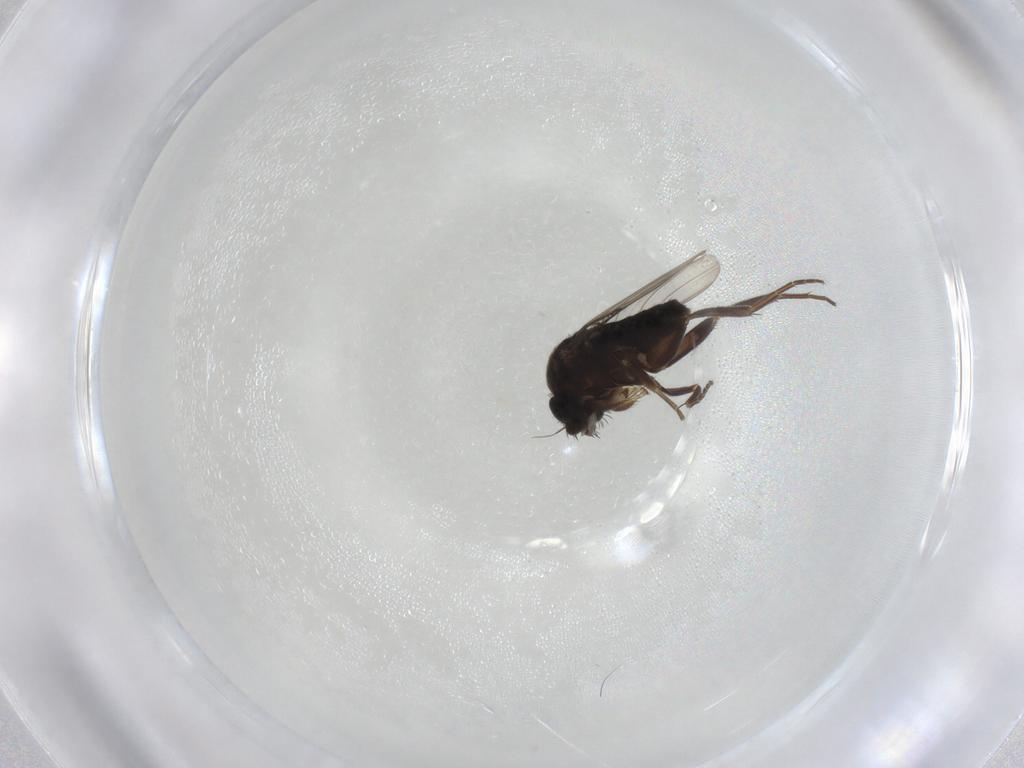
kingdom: Animalia
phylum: Arthropoda
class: Insecta
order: Diptera
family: Phoridae
